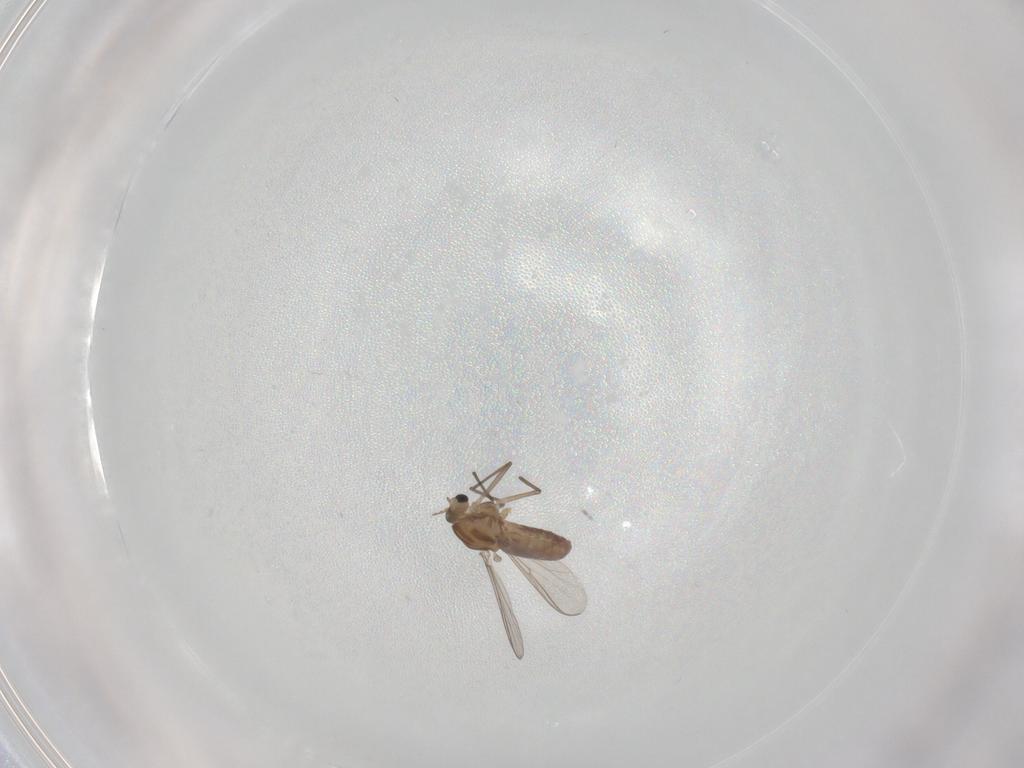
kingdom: Animalia
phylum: Arthropoda
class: Insecta
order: Diptera
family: Chironomidae
